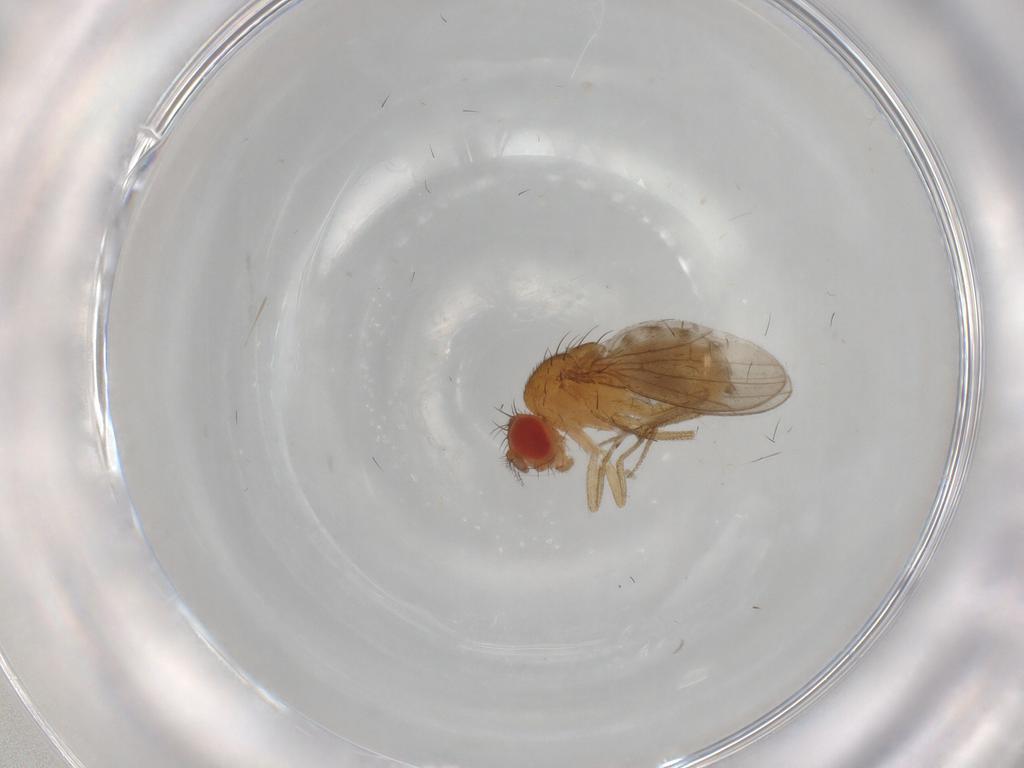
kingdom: Animalia
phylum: Arthropoda
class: Insecta
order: Diptera
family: Drosophilidae
